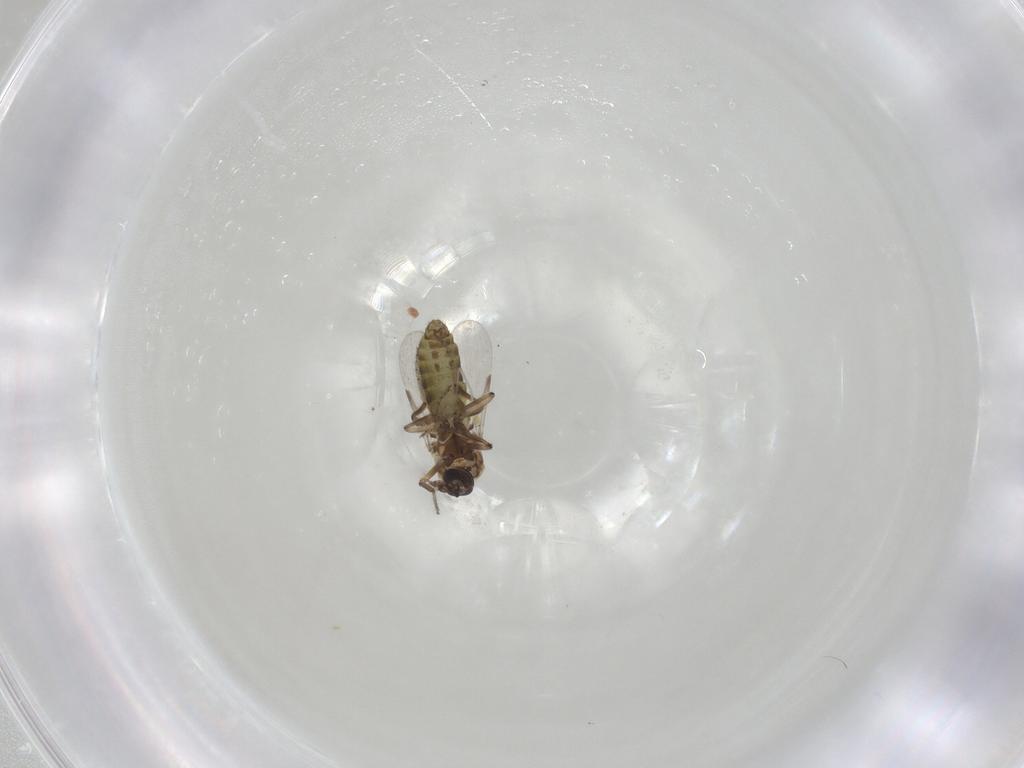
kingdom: Animalia
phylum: Arthropoda
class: Insecta
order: Diptera
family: Ceratopogonidae
